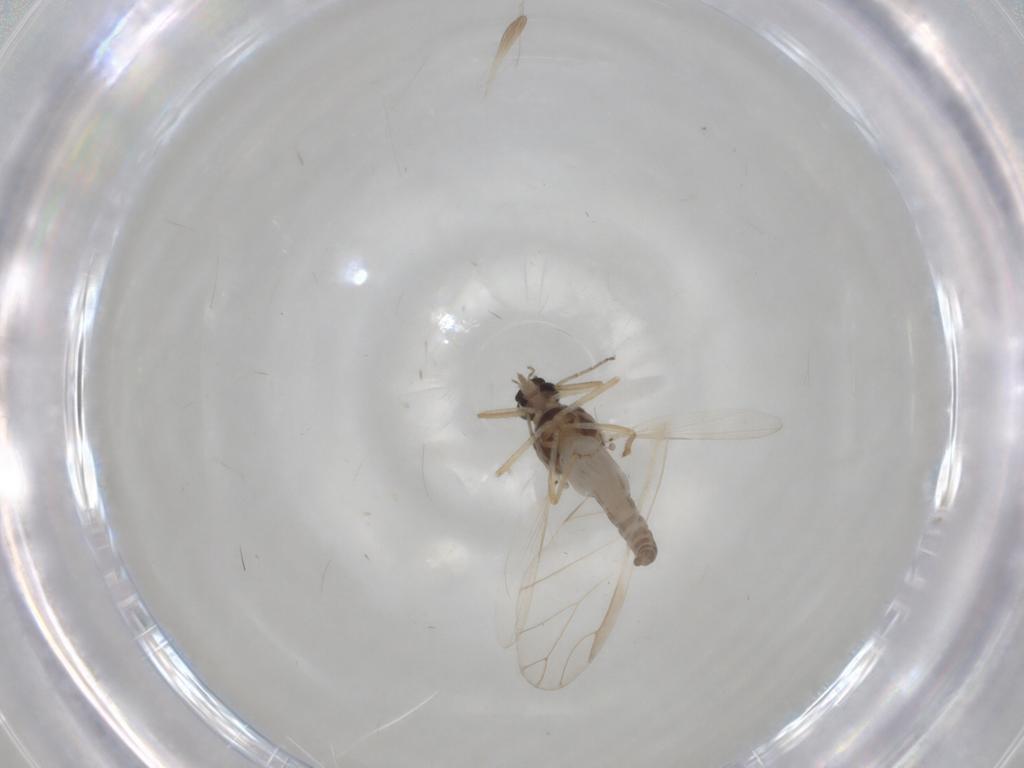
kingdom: Animalia
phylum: Arthropoda
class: Insecta
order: Diptera
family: Ceratopogonidae
